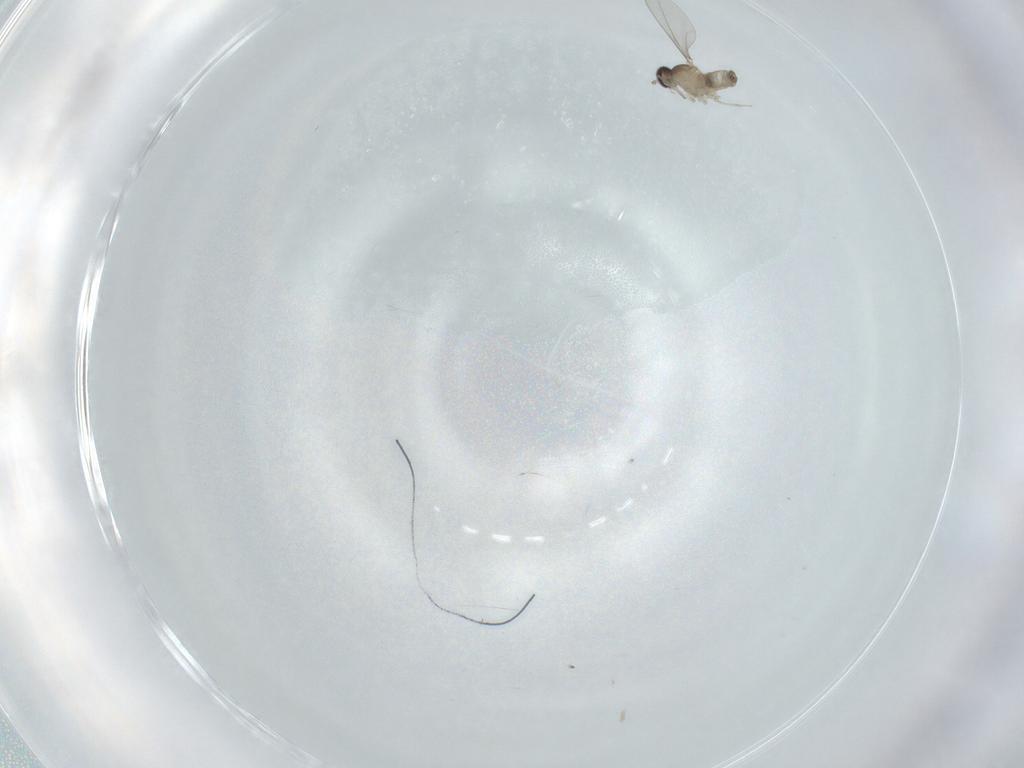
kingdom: Animalia
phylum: Arthropoda
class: Insecta
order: Diptera
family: Cecidomyiidae
